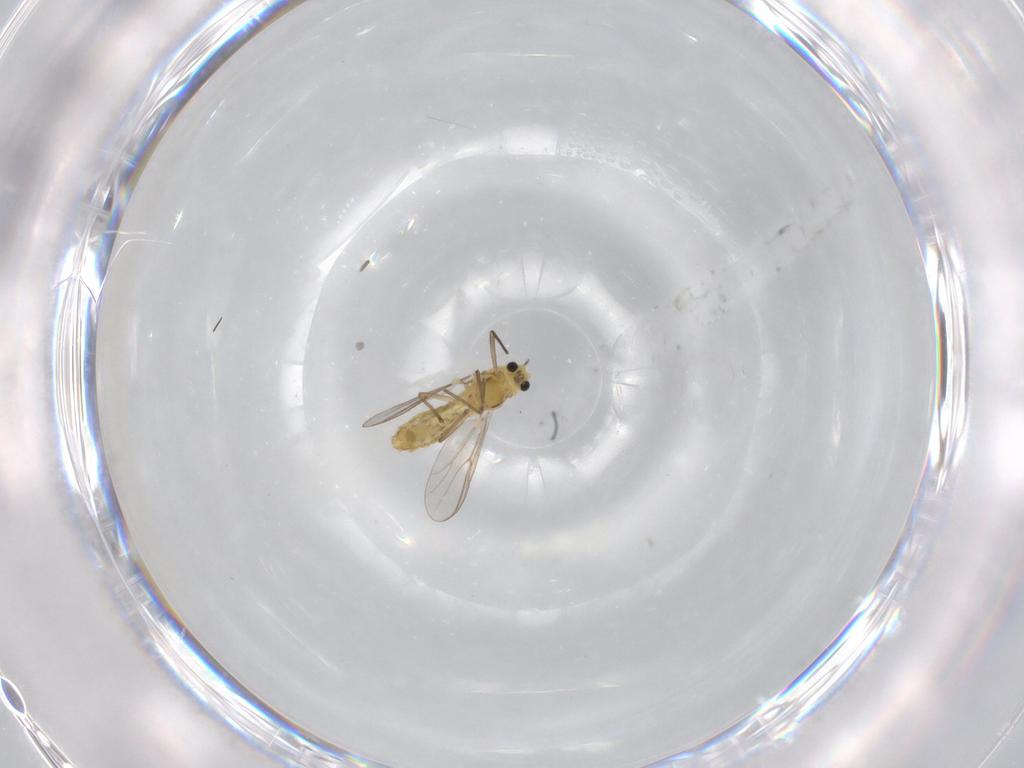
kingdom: Animalia
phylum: Arthropoda
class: Insecta
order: Diptera
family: Chironomidae
